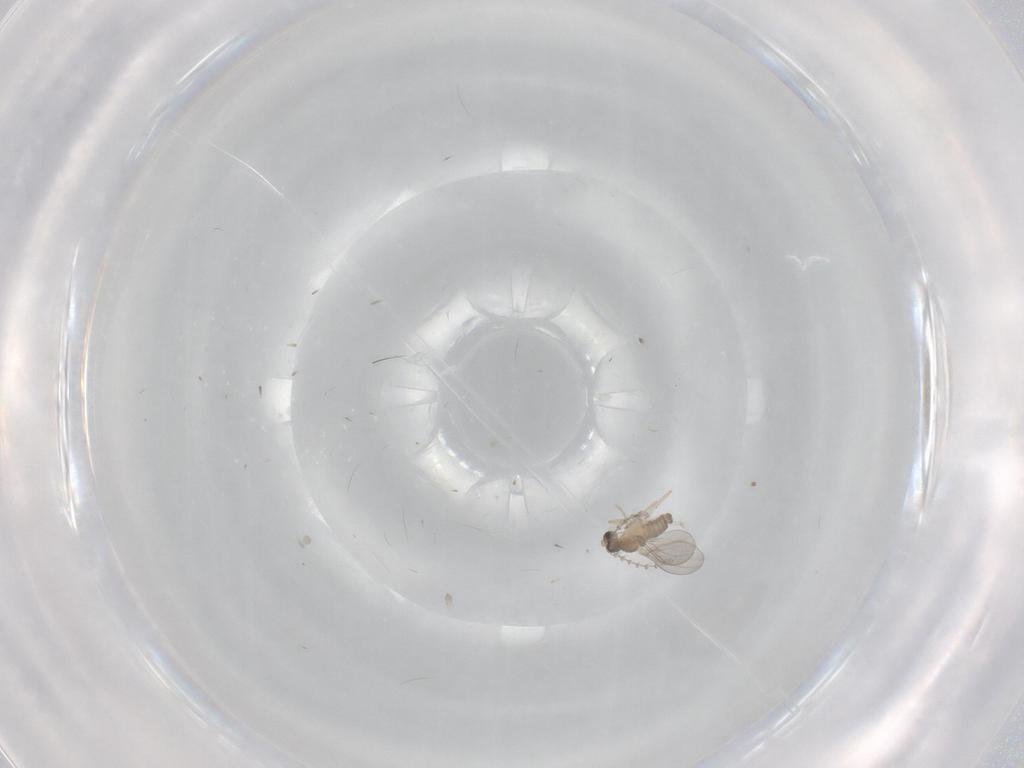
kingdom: Animalia
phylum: Arthropoda
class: Insecta
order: Diptera
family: Cecidomyiidae
